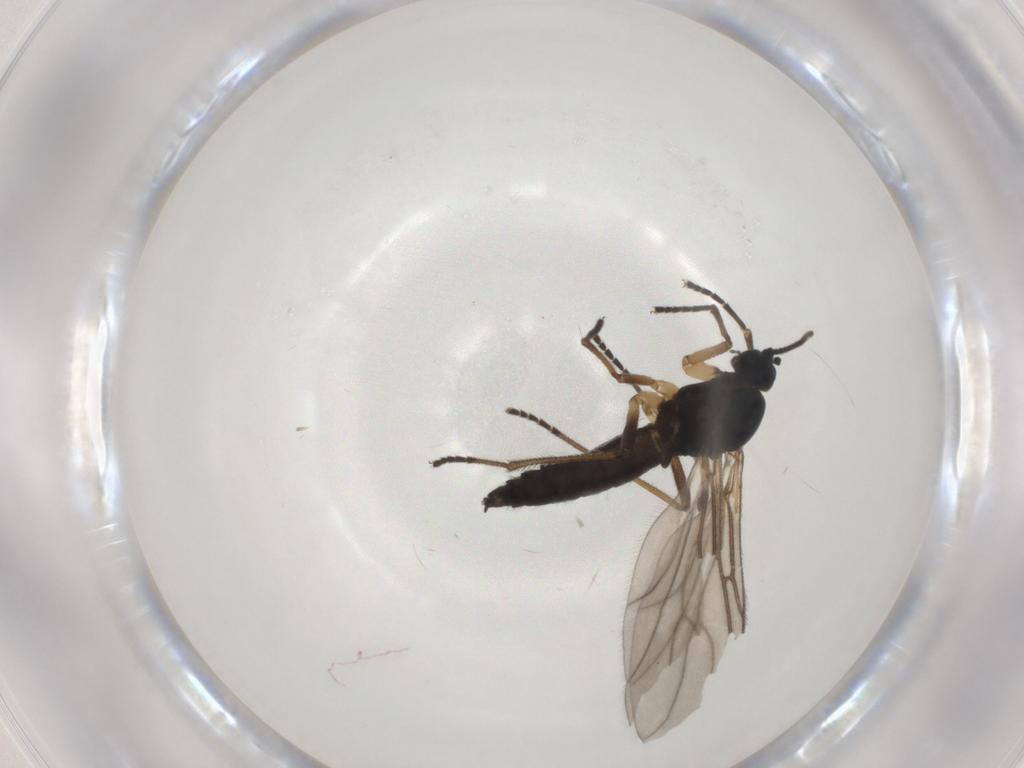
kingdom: Animalia
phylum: Arthropoda
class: Insecta
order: Diptera
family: Sciaridae
